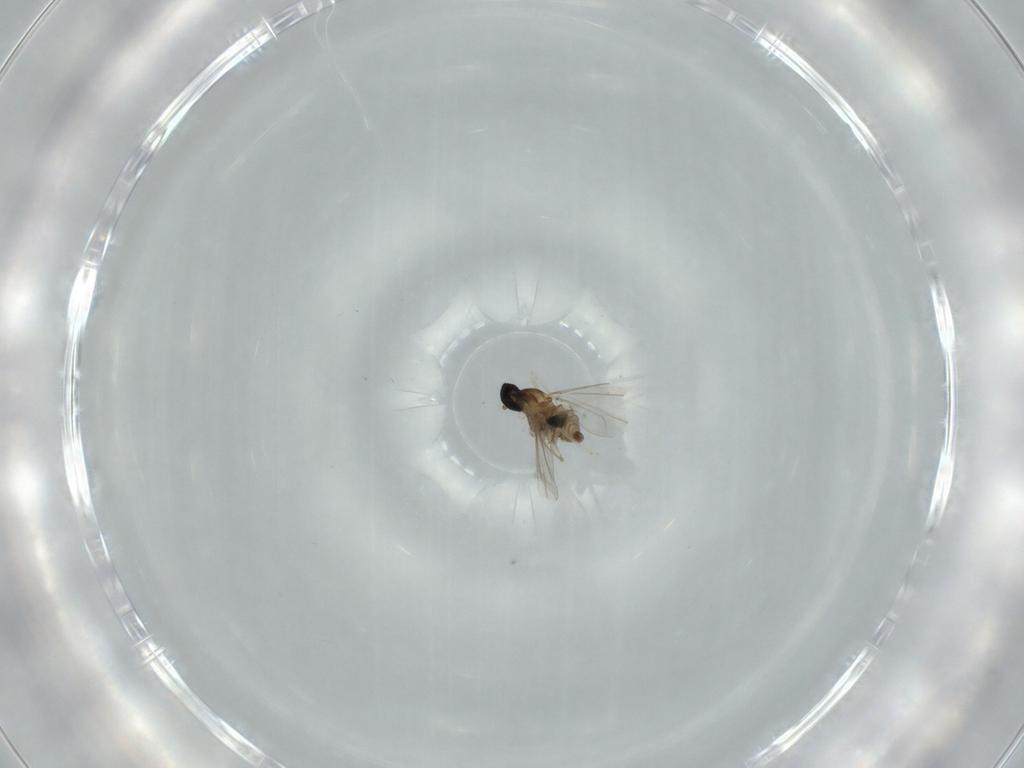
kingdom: Animalia
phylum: Arthropoda
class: Insecta
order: Diptera
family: Cecidomyiidae
